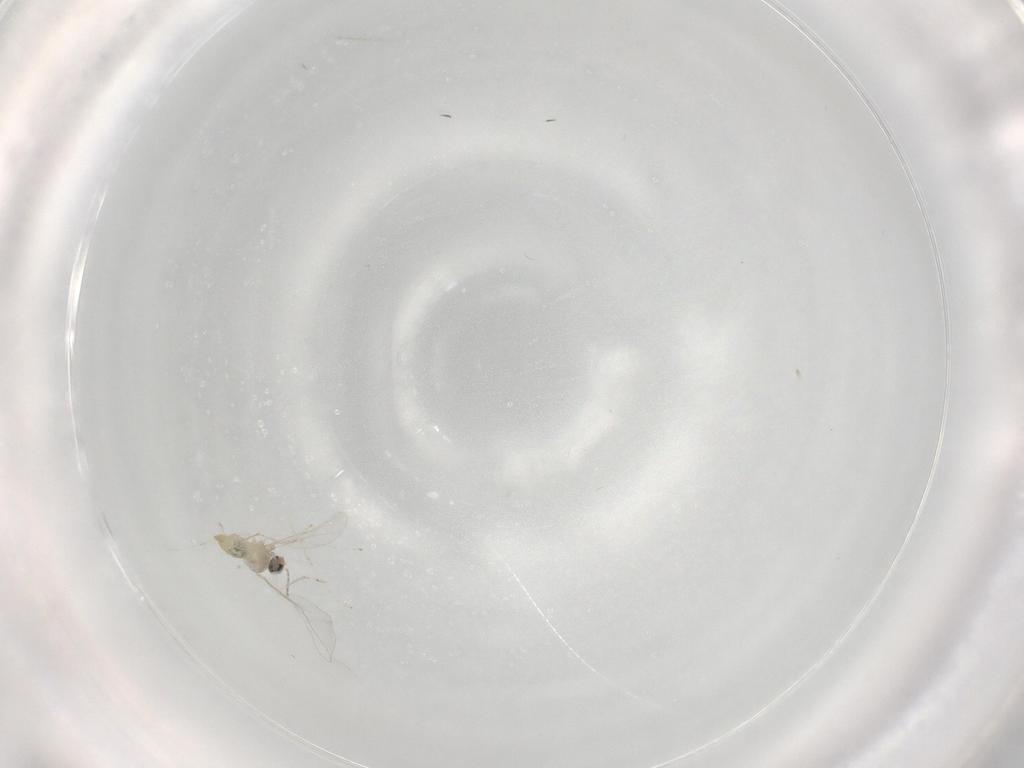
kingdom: Animalia
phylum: Arthropoda
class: Insecta
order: Diptera
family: Cecidomyiidae
